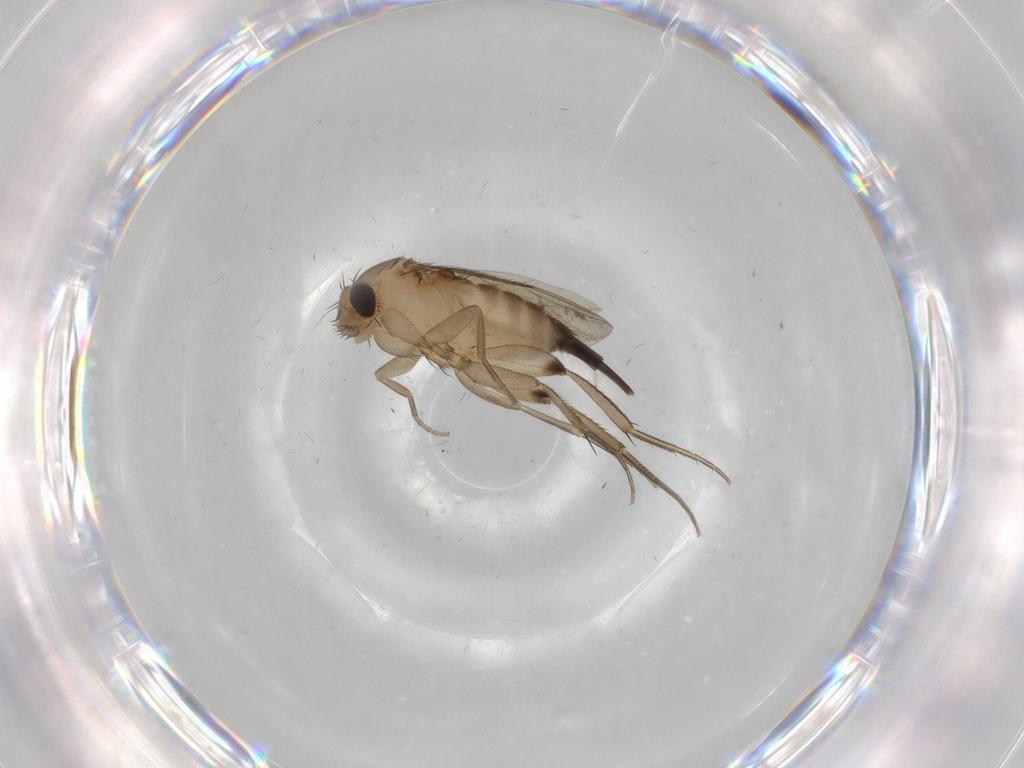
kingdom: Animalia
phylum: Arthropoda
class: Insecta
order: Diptera
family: Cecidomyiidae
